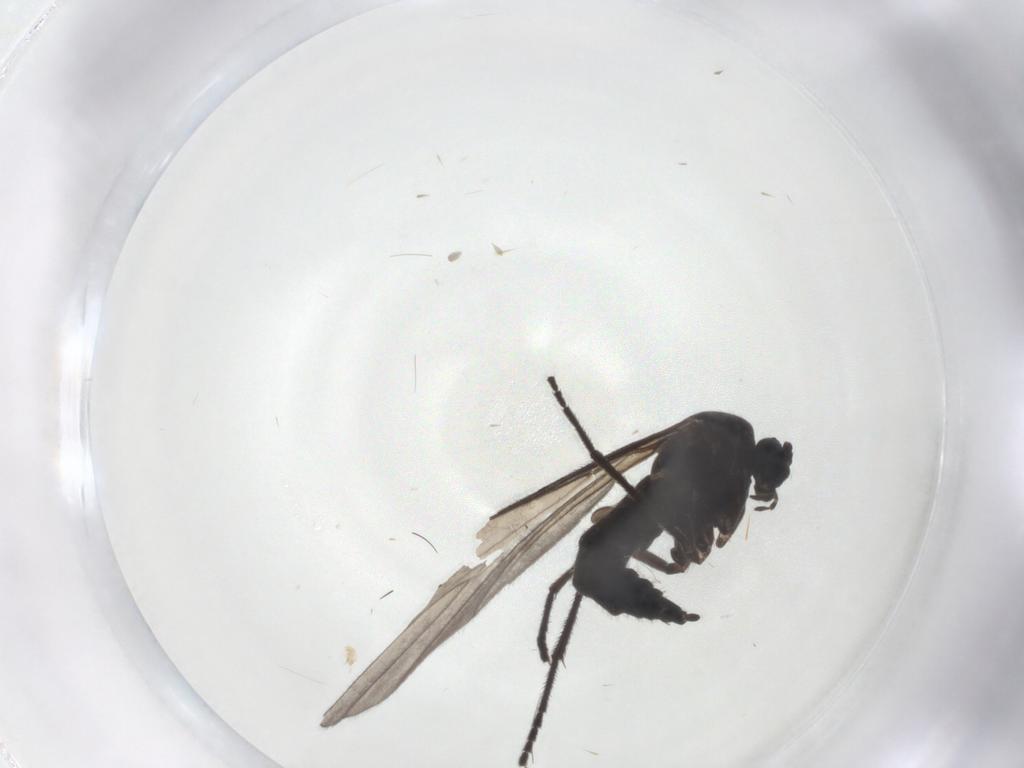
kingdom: Animalia
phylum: Arthropoda
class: Insecta
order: Diptera
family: Sciaridae
